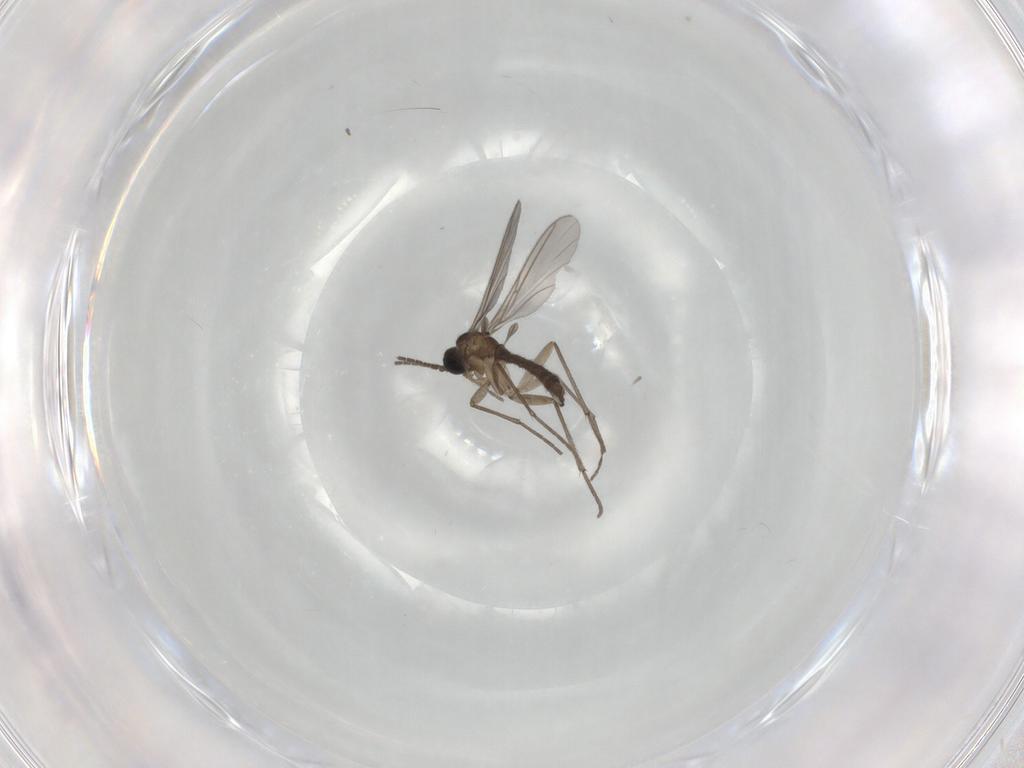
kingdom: Animalia
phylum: Arthropoda
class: Insecta
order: Diptera
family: Sciaridae
